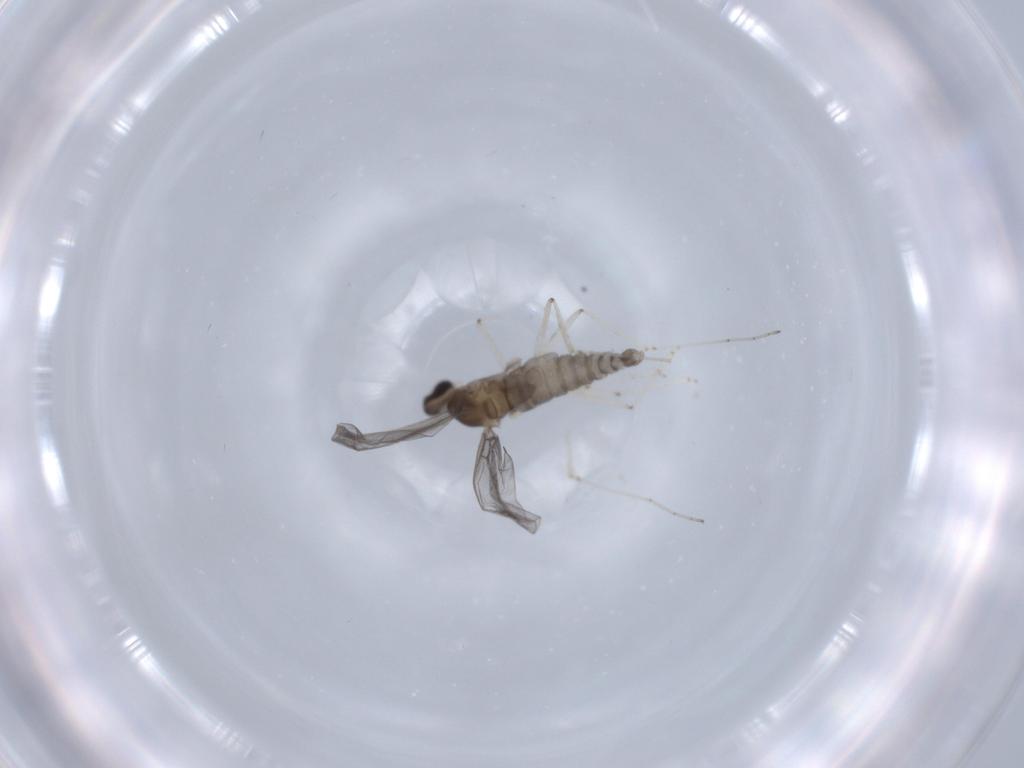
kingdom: Animalia
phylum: Arthropoda
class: Insecta
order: Diptera
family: Cecidomyiidae
